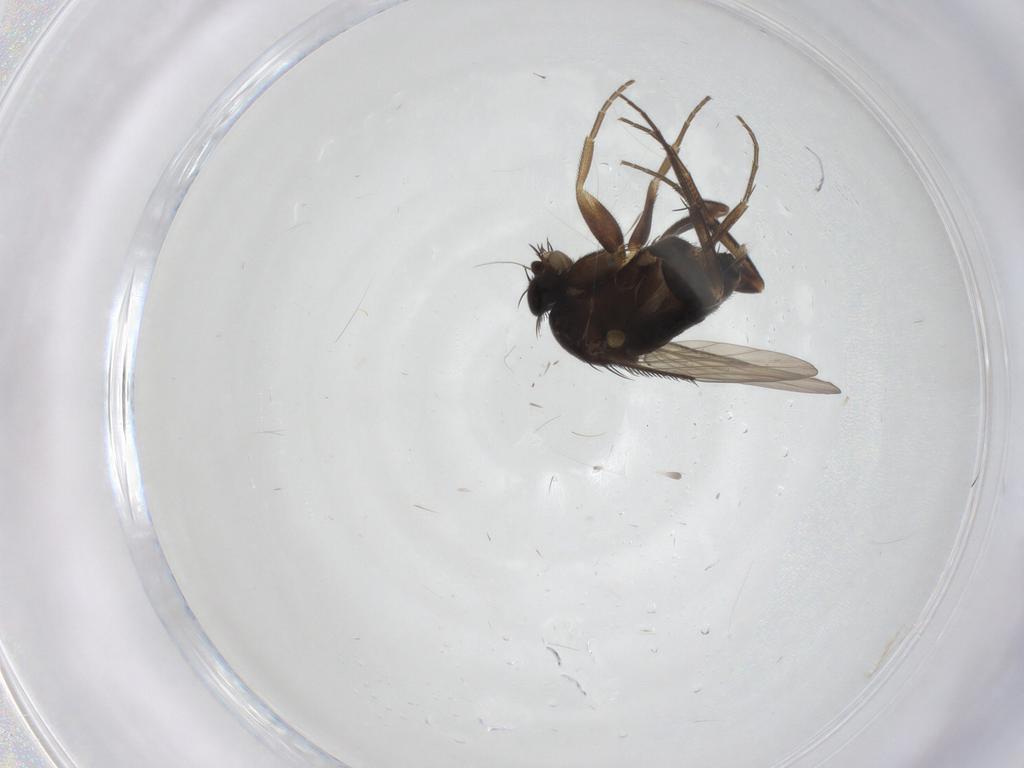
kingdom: Animalia
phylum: Arthropoda
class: Insecta
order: Diptera
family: Phoridae
